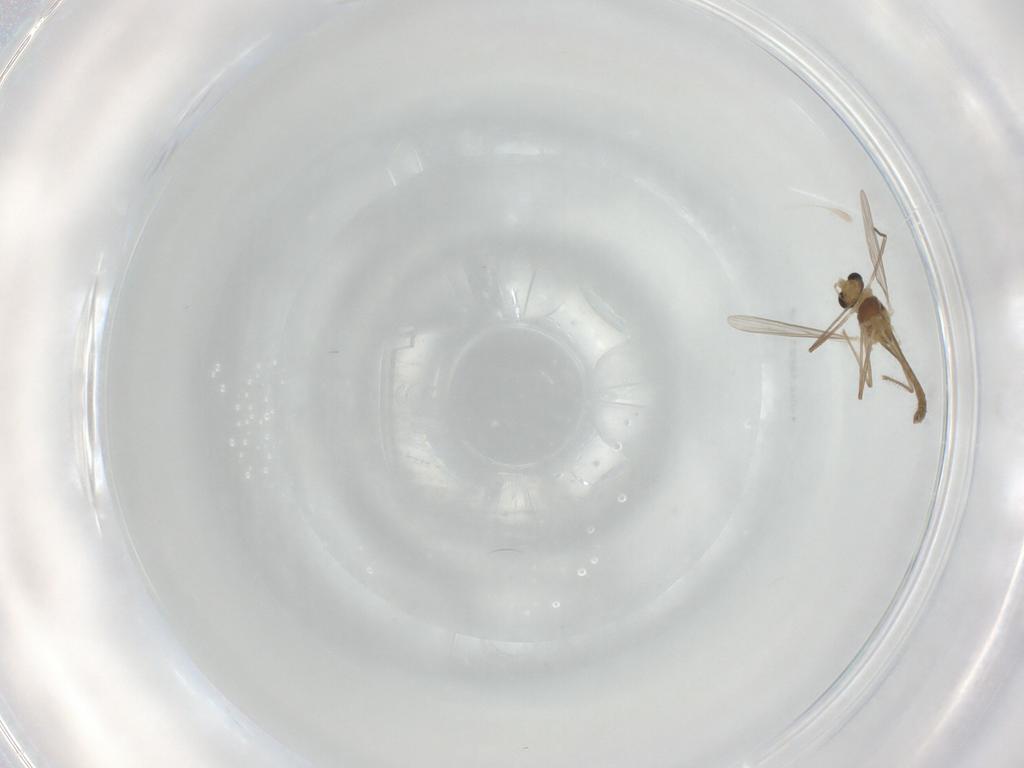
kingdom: Animalia
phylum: Arthropoda
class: Insecta
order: Diptera
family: Chironomidae
